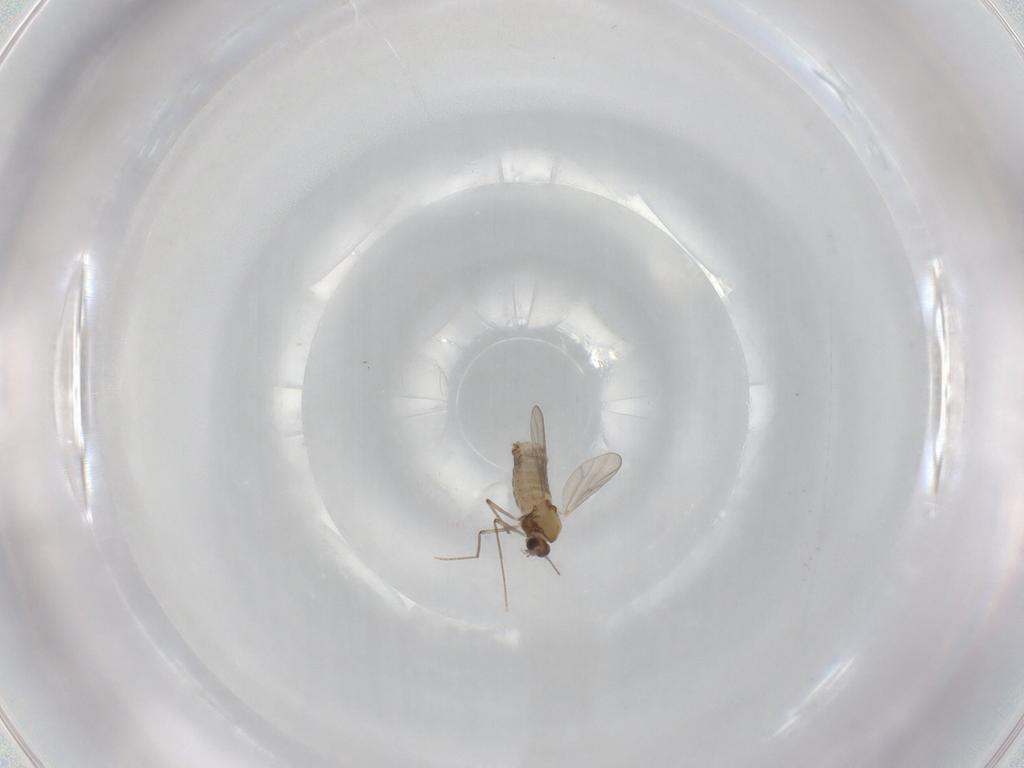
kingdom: Animalia
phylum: Arthropoda
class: Insecta
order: Diptera
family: Chironomidae
